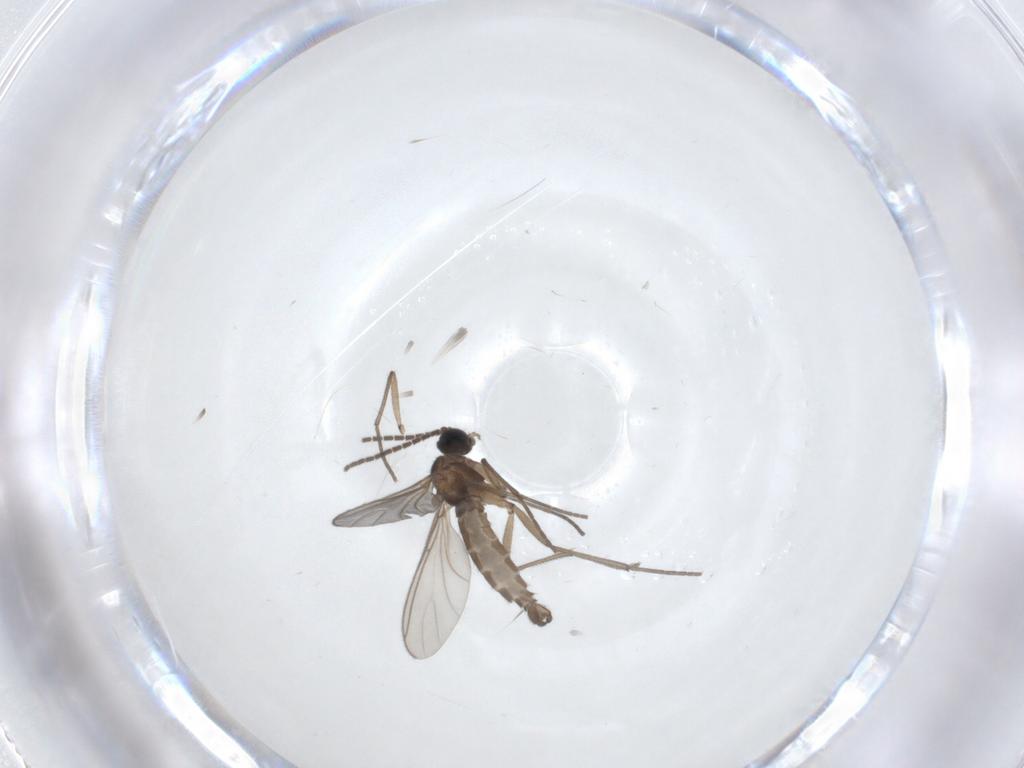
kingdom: Animalia
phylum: Arthropoda
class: Insecta
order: Diptera
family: Sciaridae
